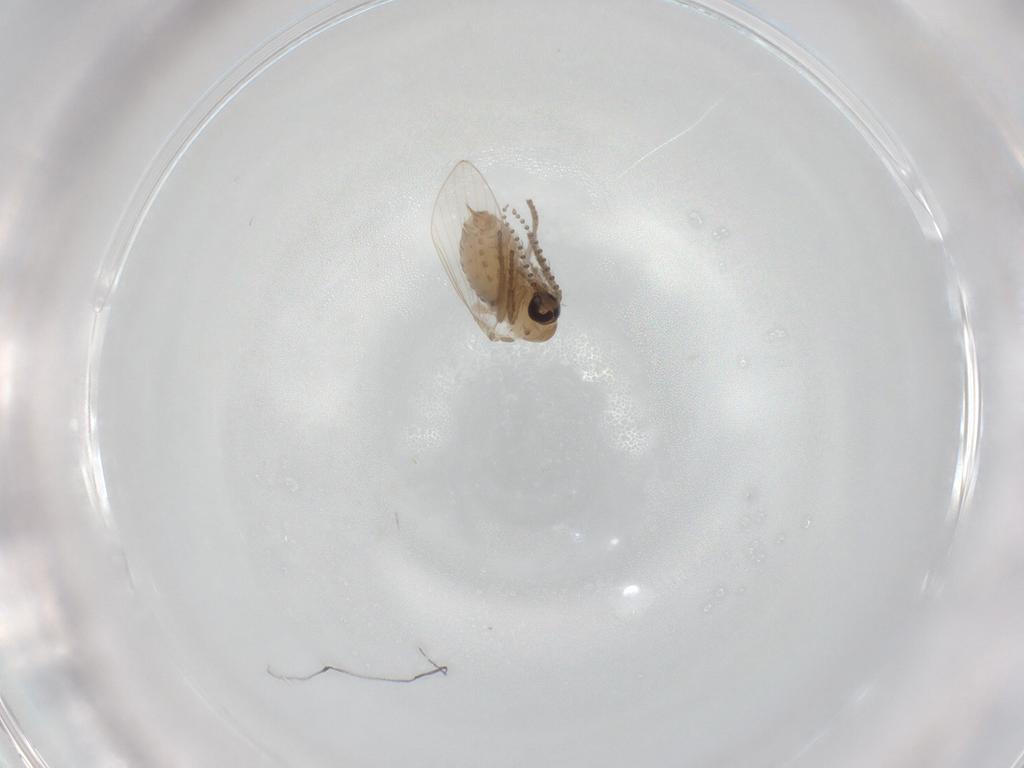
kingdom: Animalia
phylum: Arthropoda
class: Insecta
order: Diptera
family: Psychodidae
